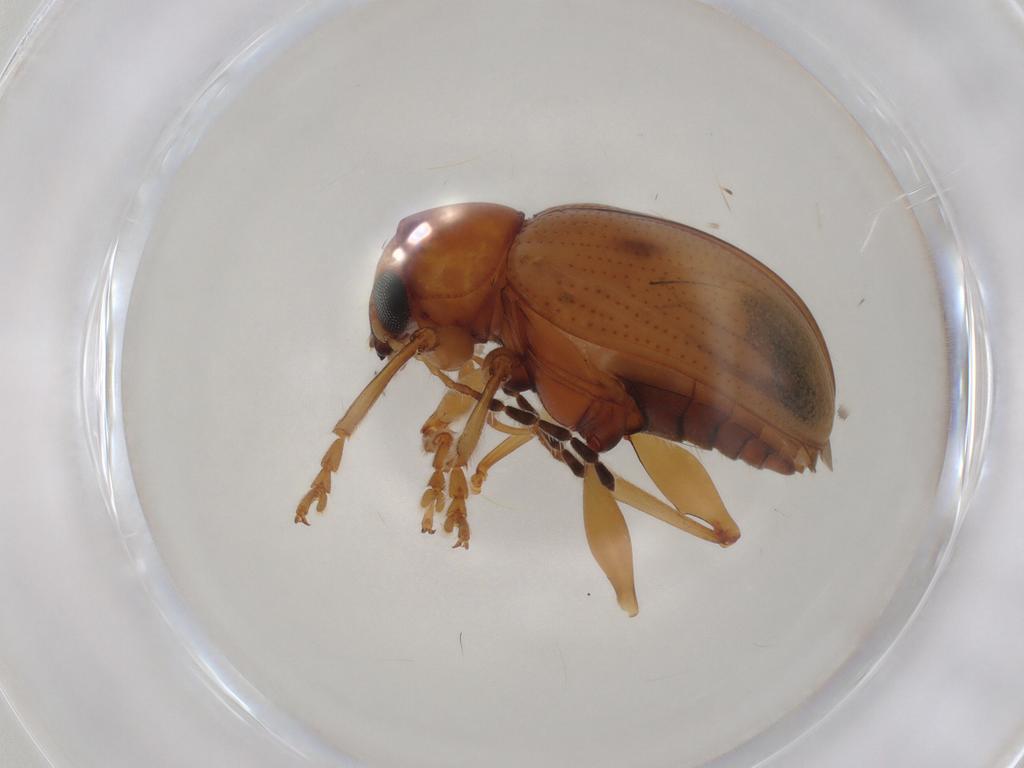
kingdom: Animalia
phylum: Arthropoda
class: Insecta
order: Coleoptera
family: Chrysomelidae
